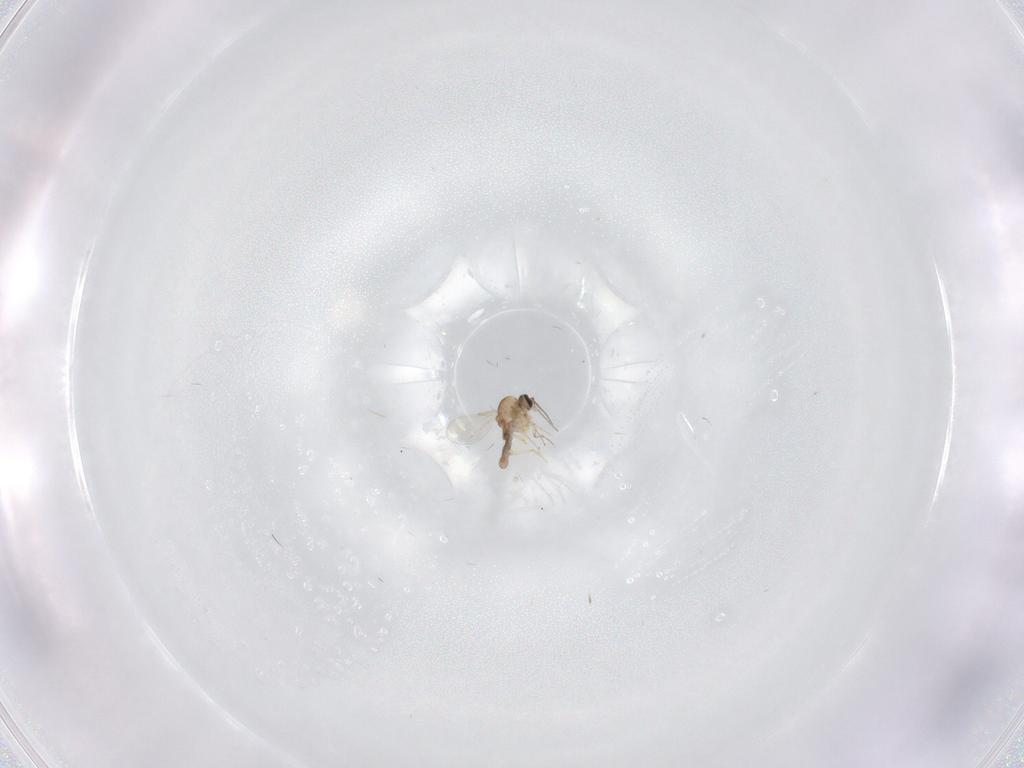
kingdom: Animalia
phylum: Arthropoda
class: Insecta
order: Diptera
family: Ceratopogonidae
